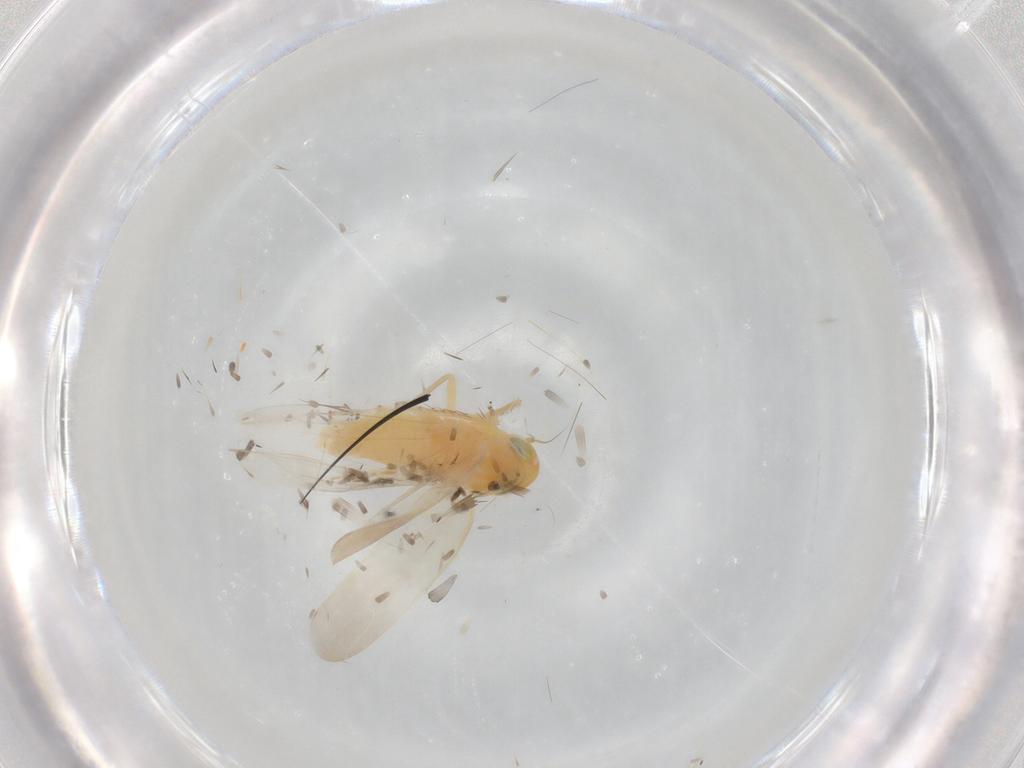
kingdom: Animalia
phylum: Arthropoda
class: Insecta
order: Hemiptera
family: Cicadellidae
